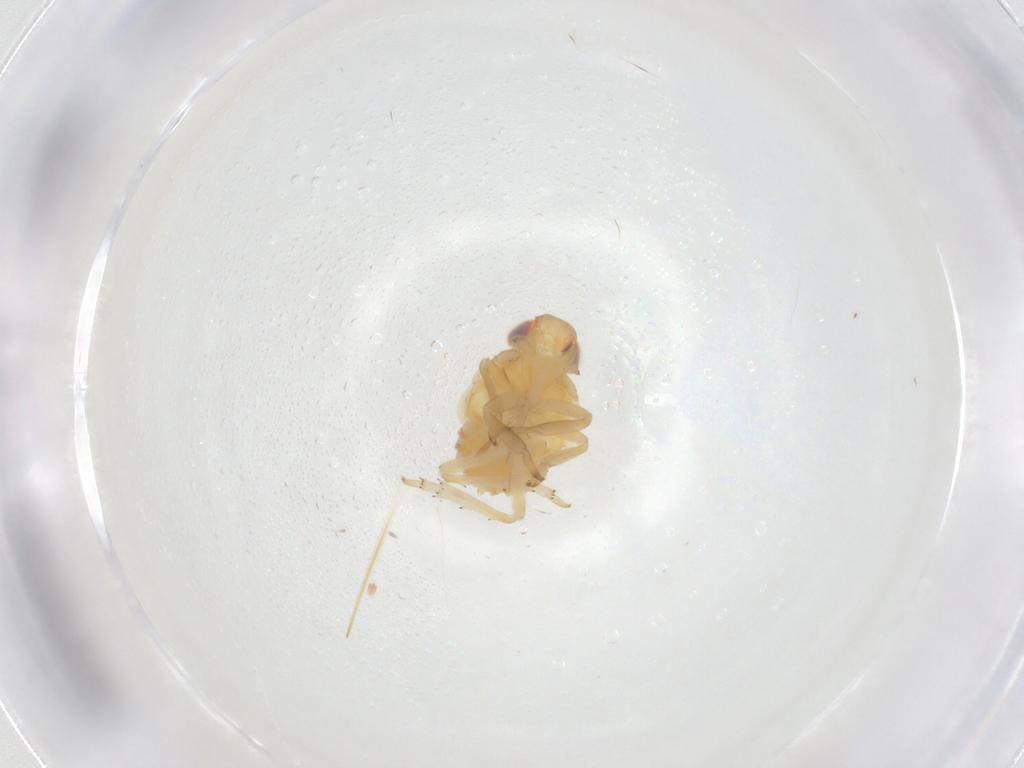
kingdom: Animalia
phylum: Arthropoda
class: Insecta
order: Hemiptera
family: Fulgoroidea_incertae_sedis
